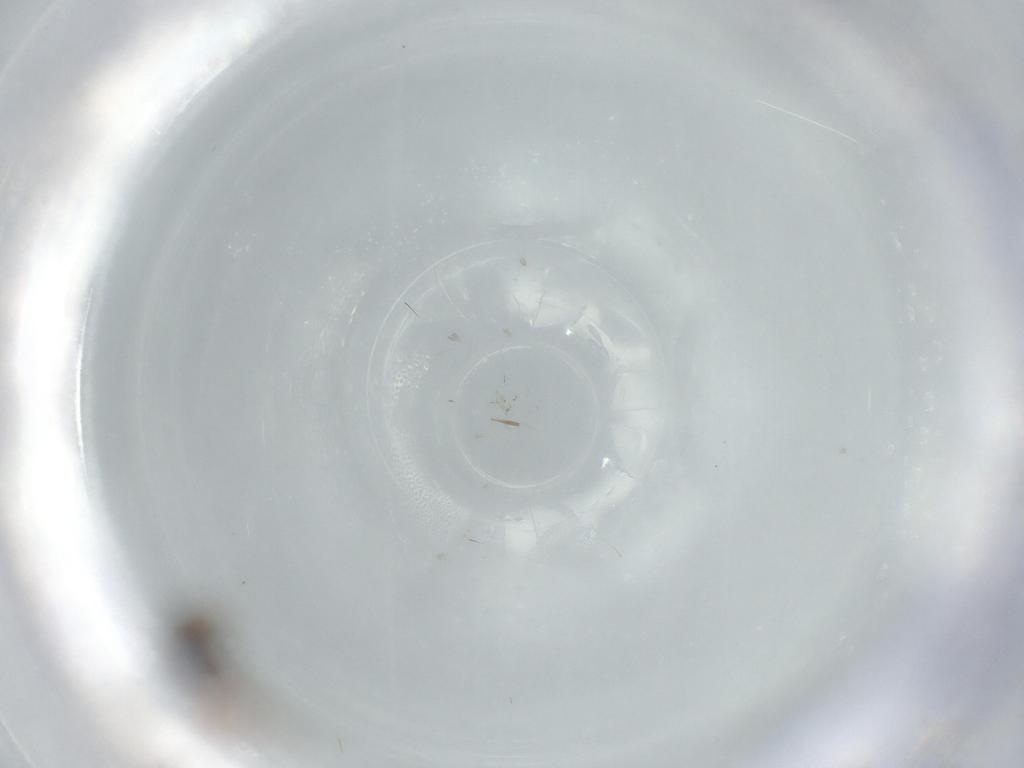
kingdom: Animalia
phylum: Arthropoda
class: Insecta
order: Hymenoptera
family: Scelionidae
